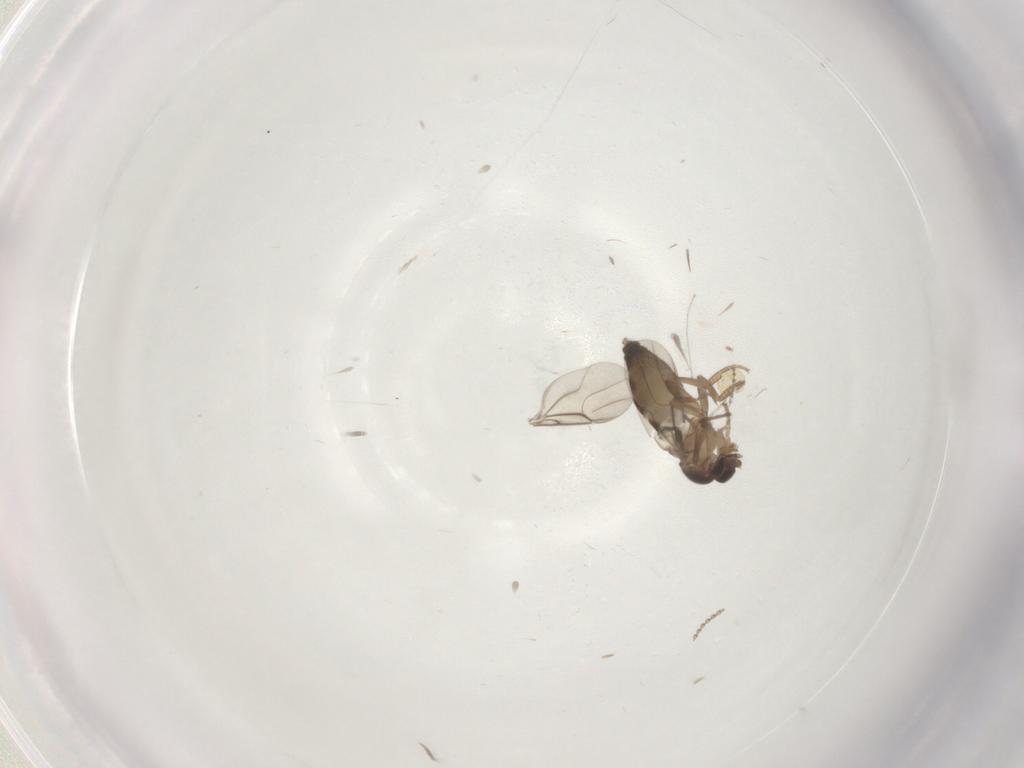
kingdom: Animalia
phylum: Arthropoda
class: Insecta
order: Diptera
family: Phoridae
